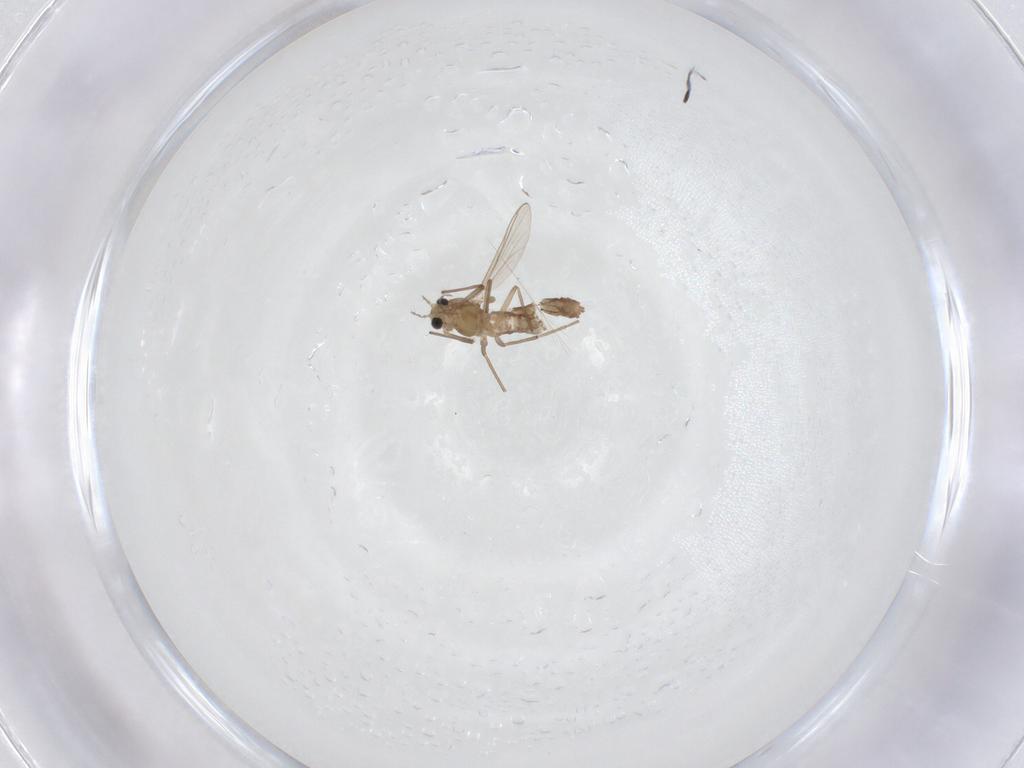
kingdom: Animalia
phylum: Arthropoda
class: Insecta
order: Diptera
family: Chironomidae
